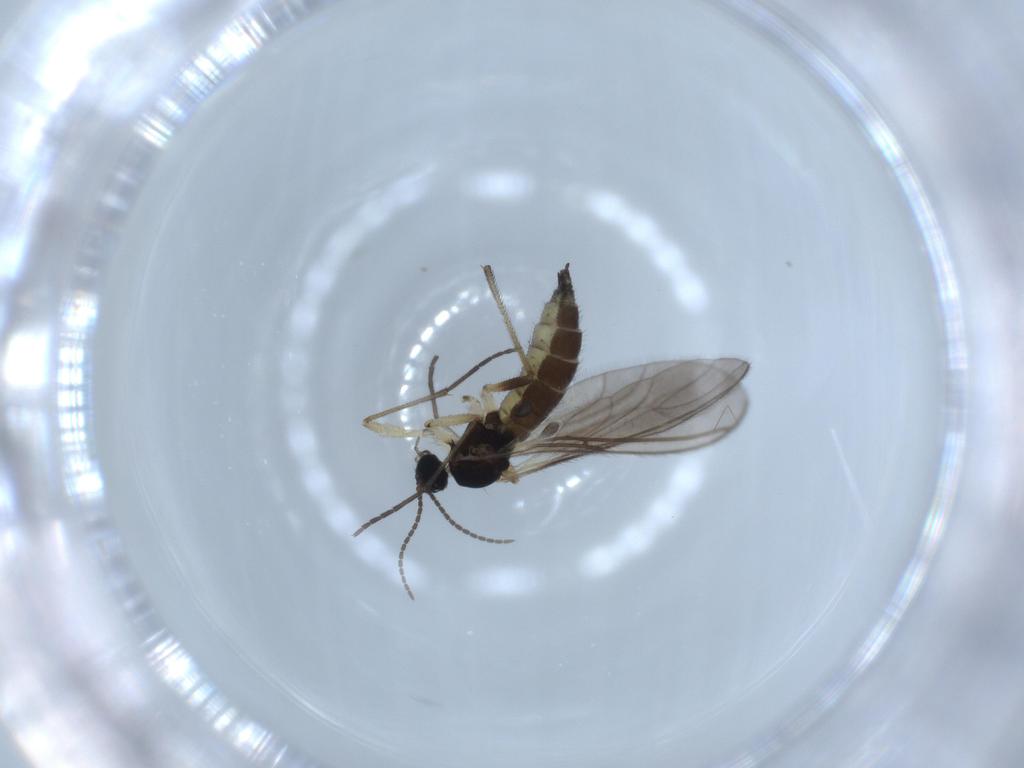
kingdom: Animalia
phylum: Arthropoda
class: Insecta
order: Diptera
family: Sciaridae
